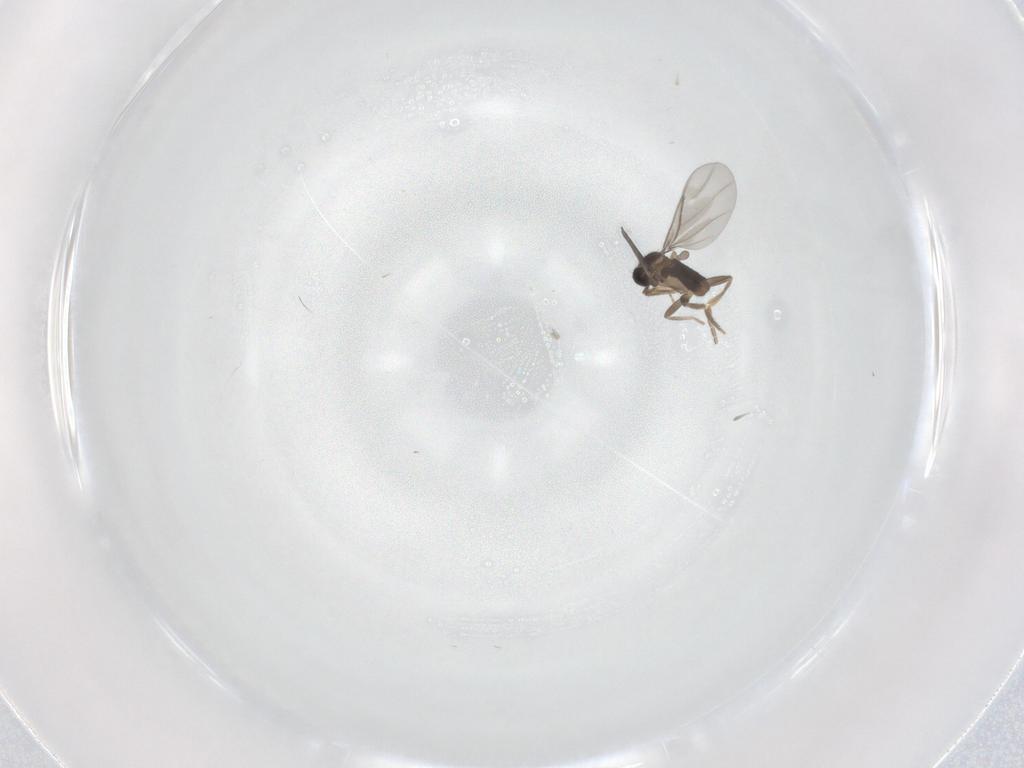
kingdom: Animalia
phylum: Arthropoda
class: Insecta
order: Diptera
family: Phoridae
